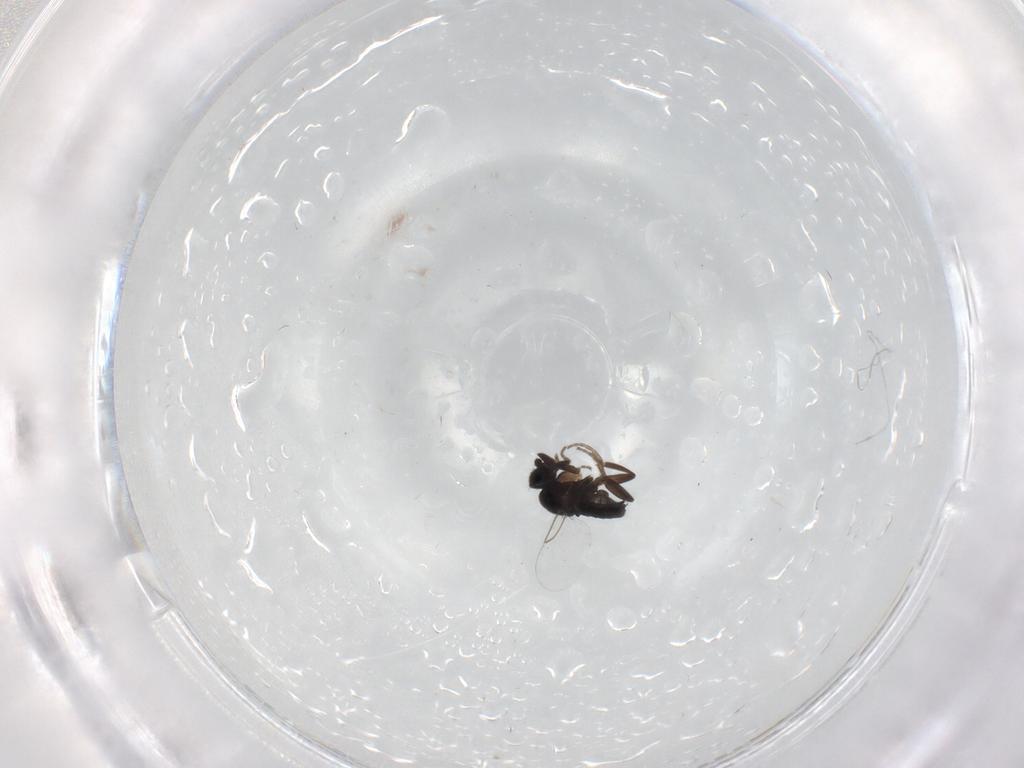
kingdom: Animalia
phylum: Arthropoda
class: Insecta
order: Diptera
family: Phoridae
